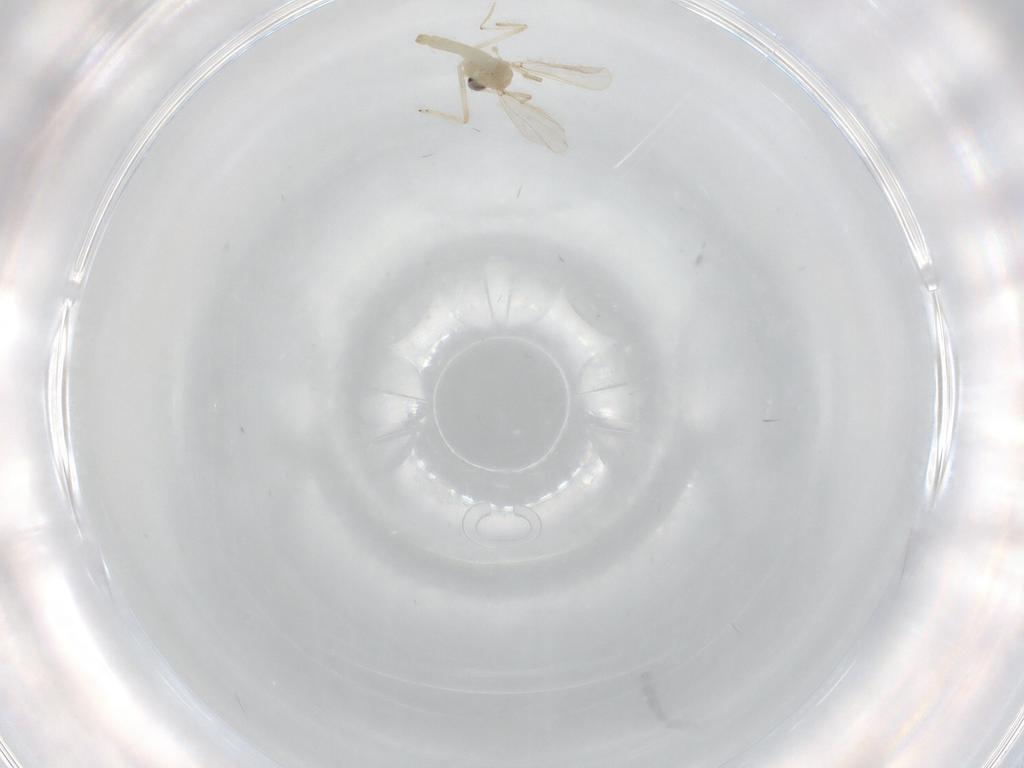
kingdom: Animalia
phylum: Arthropoda
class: Insecta
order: Diptera
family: Chironomidae
